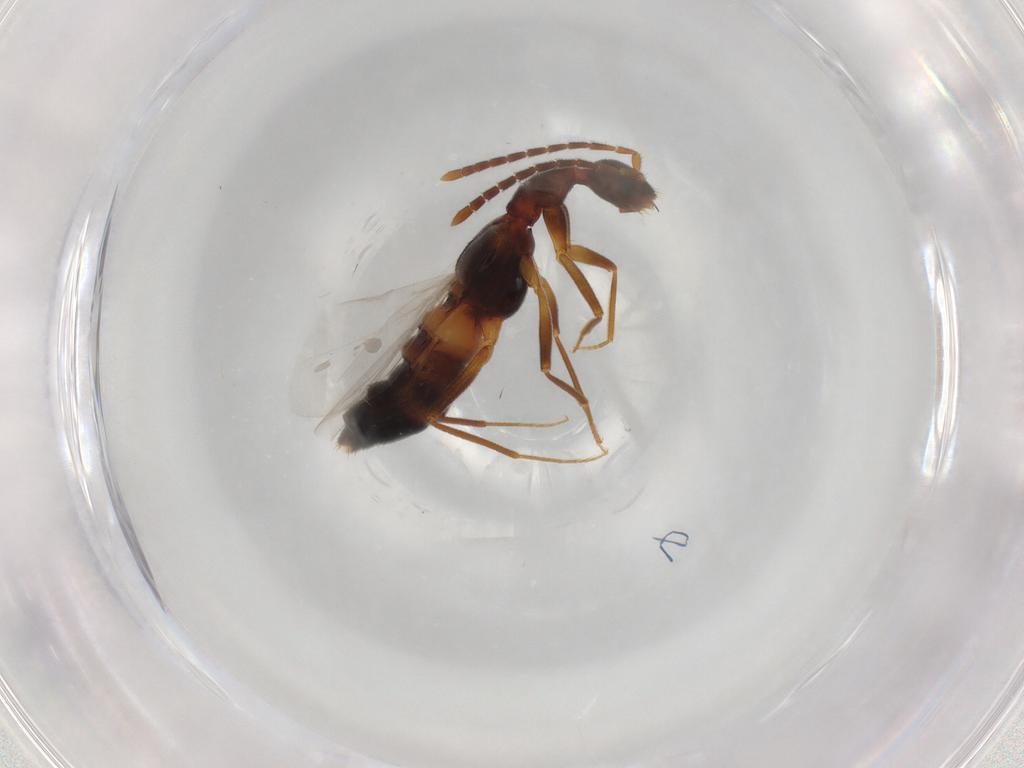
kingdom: Animalia
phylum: Arthropoda
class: Insecta
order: Coleoptera
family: Staphylinidae
